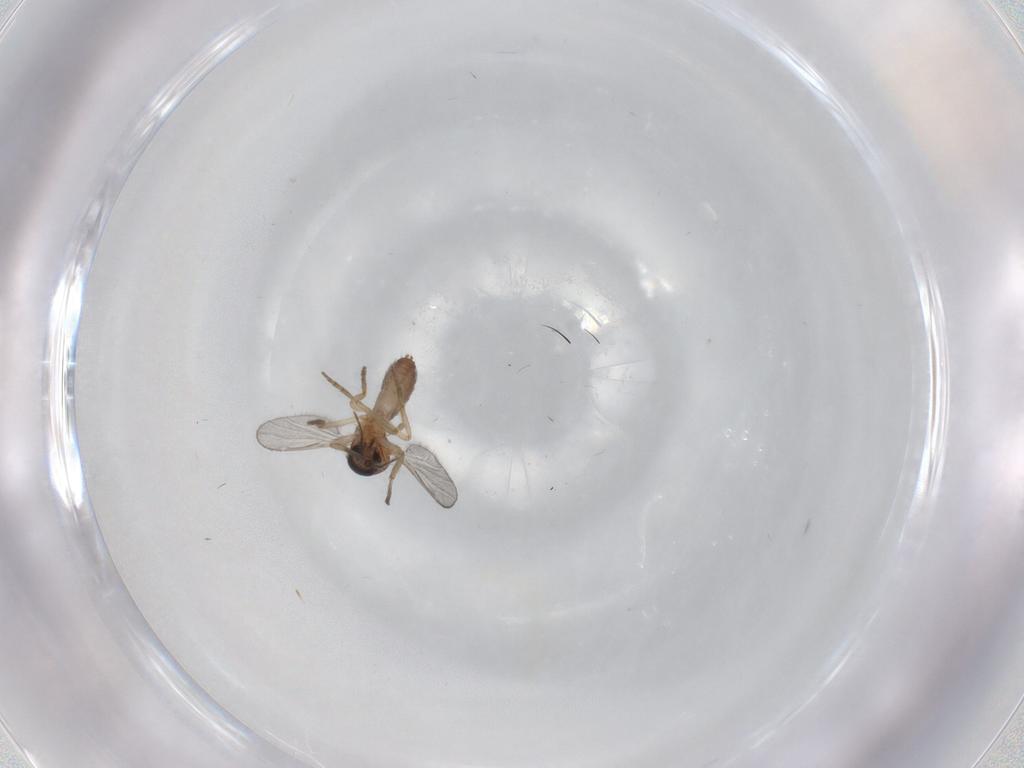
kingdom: Animalia
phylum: Arthropoda
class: Insecta
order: Diptera
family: Ceratopogonidae
